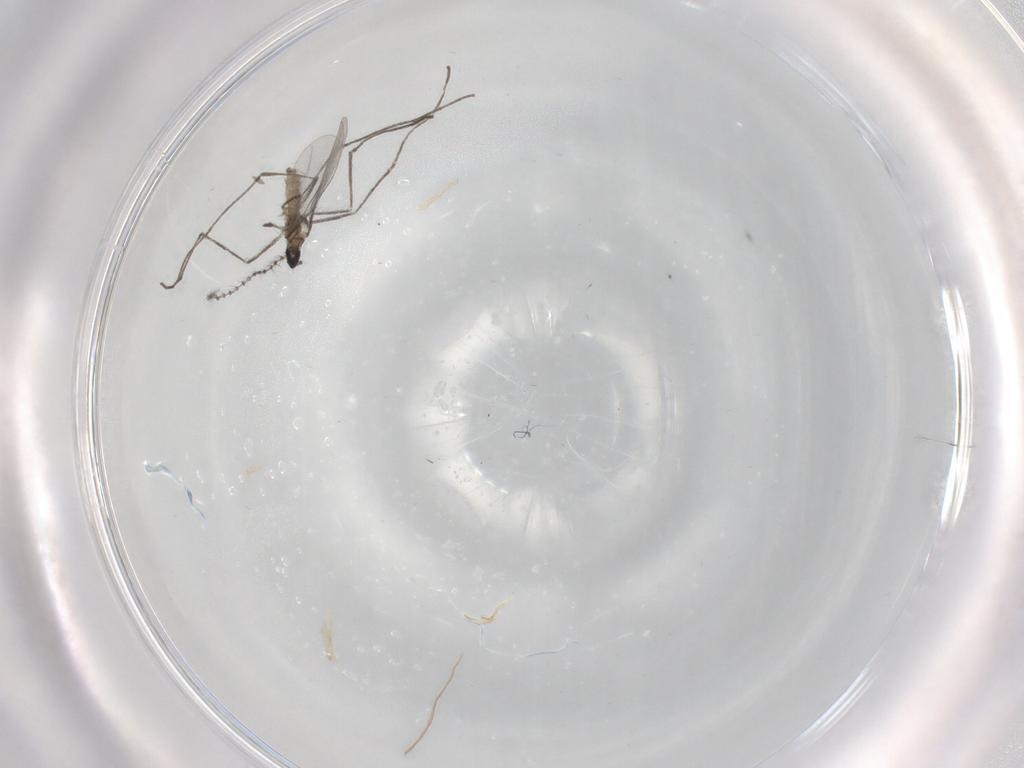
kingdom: Animalia
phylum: Arthropoda
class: Insecta
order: Diptera
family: Cecidomyiidae
